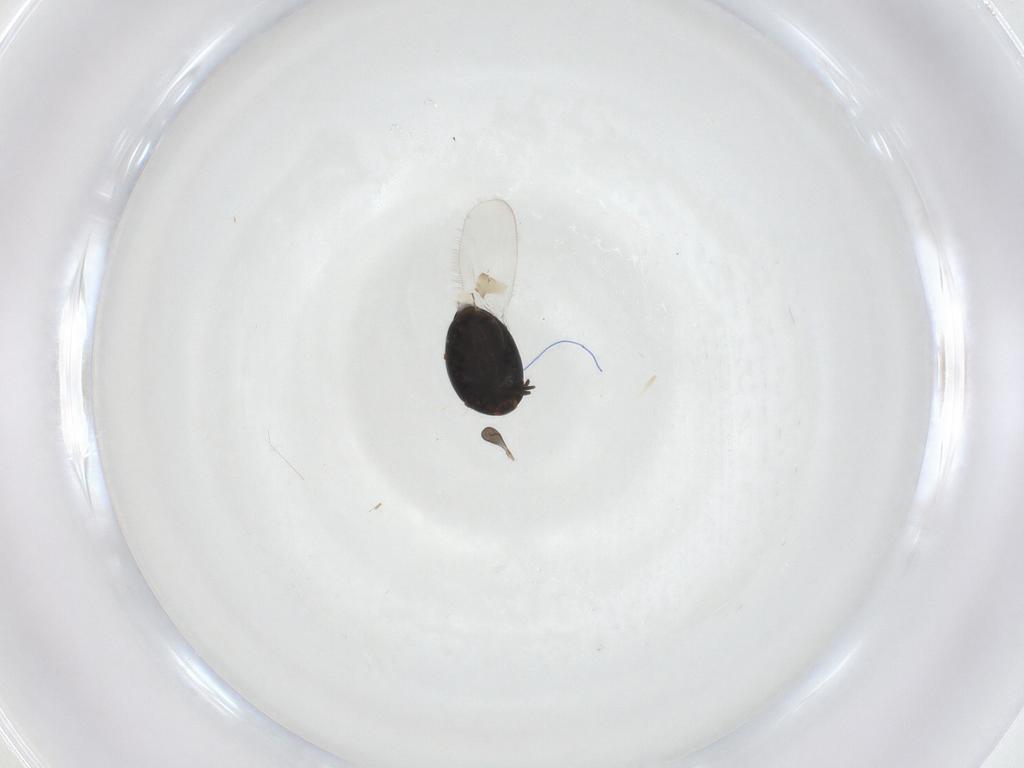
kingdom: Animalia
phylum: Arthropoda
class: Insecta
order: Coleoptera
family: Corylophidae
